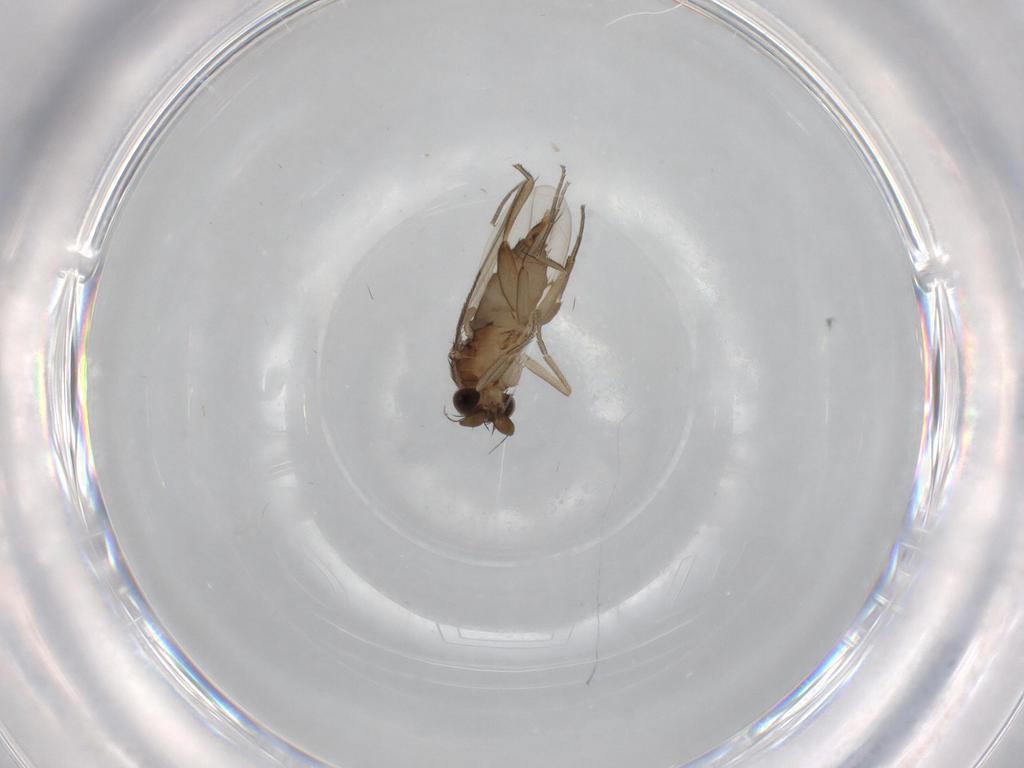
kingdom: Animalia
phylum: Arthropoda
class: Insecta
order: Diptera
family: Phoridae
